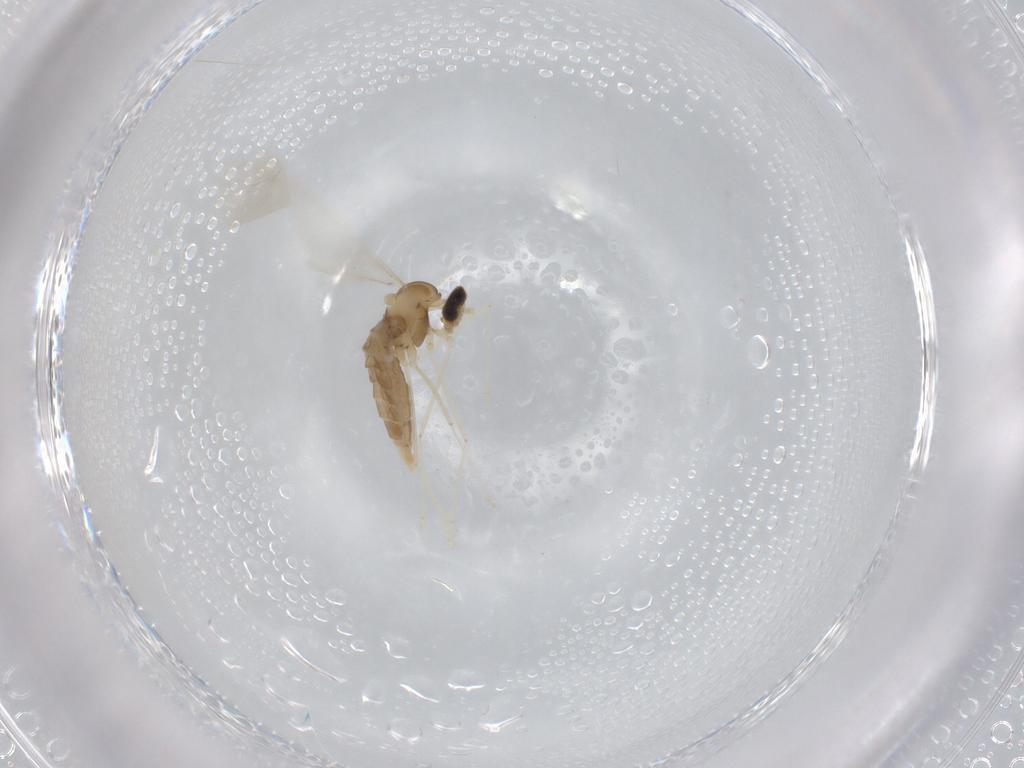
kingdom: Animalia
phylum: Arthropoda
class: Insecta
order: Diptera
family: Cecidomyiidae
